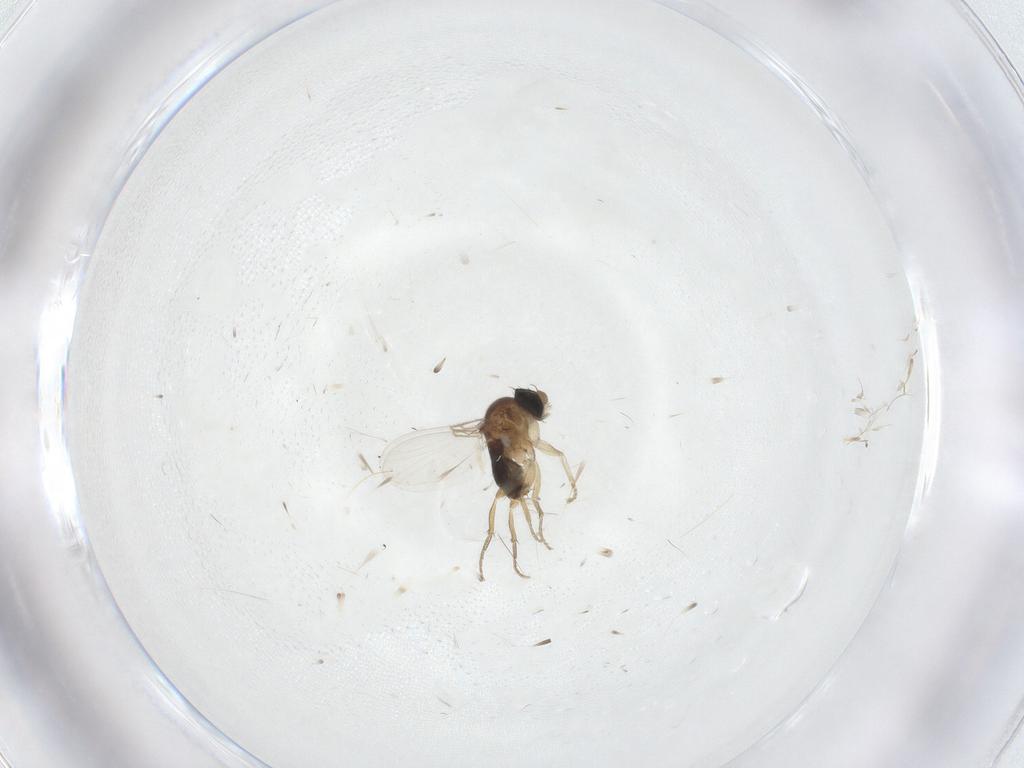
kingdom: Animalia
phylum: Arthropoda
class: Insecta
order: Diptera
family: Phoridae
